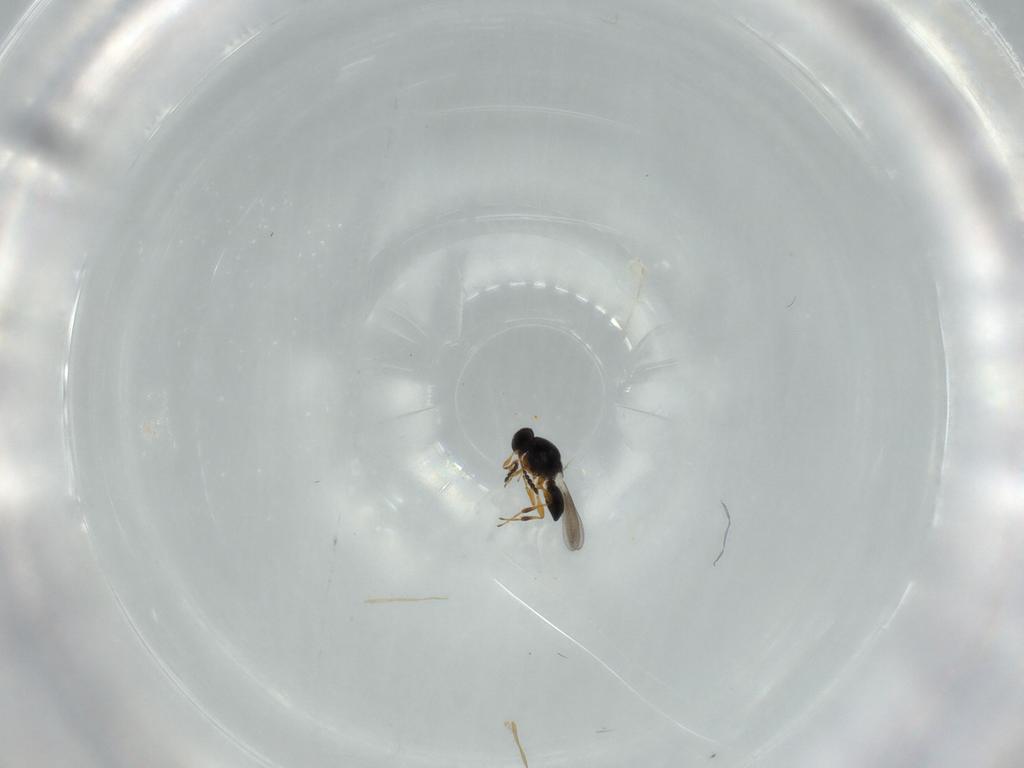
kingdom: Animalia
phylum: Arthropoda
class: Insecta
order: Hymenoptera
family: Platygastridae
